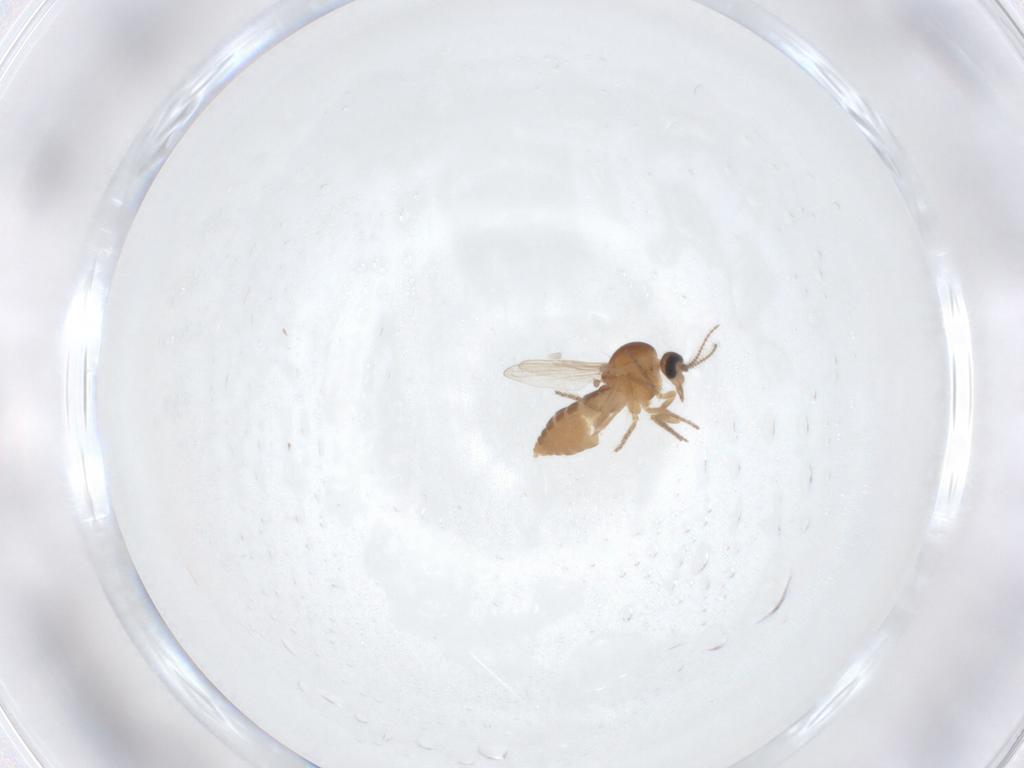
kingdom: Animalia
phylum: Arthropoda
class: Insecta
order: Diptera
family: Ceratopogonidae
